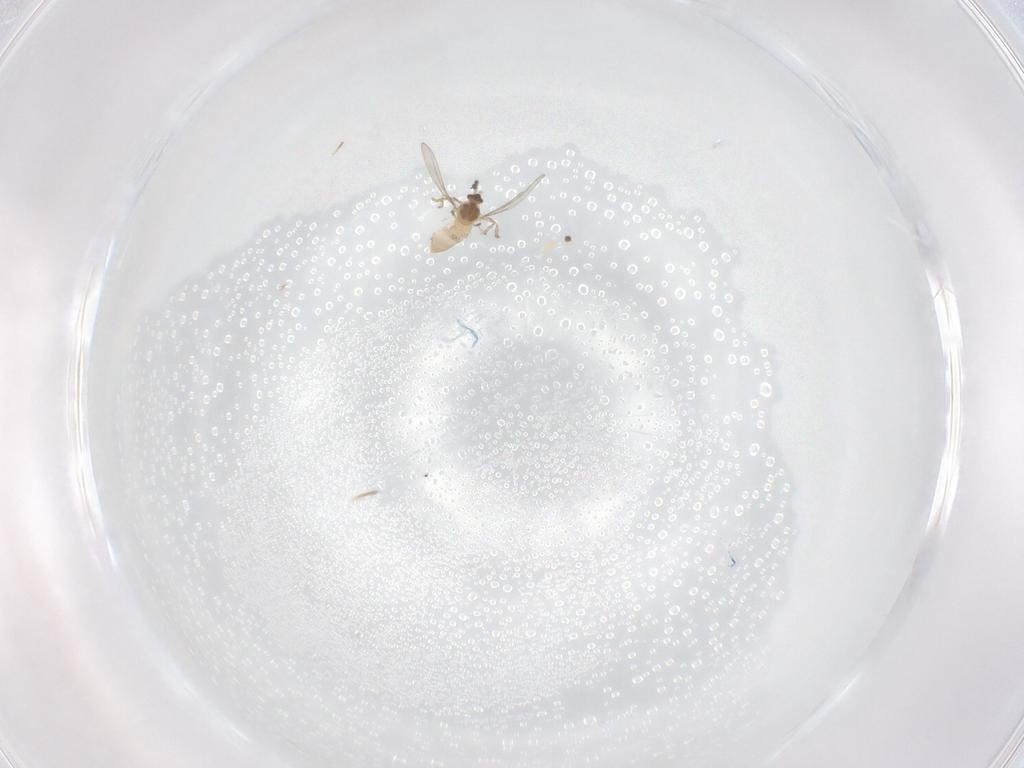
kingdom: Animalia
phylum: Arthropoda
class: Insecta
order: Diptera
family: Cecidomyiidae
